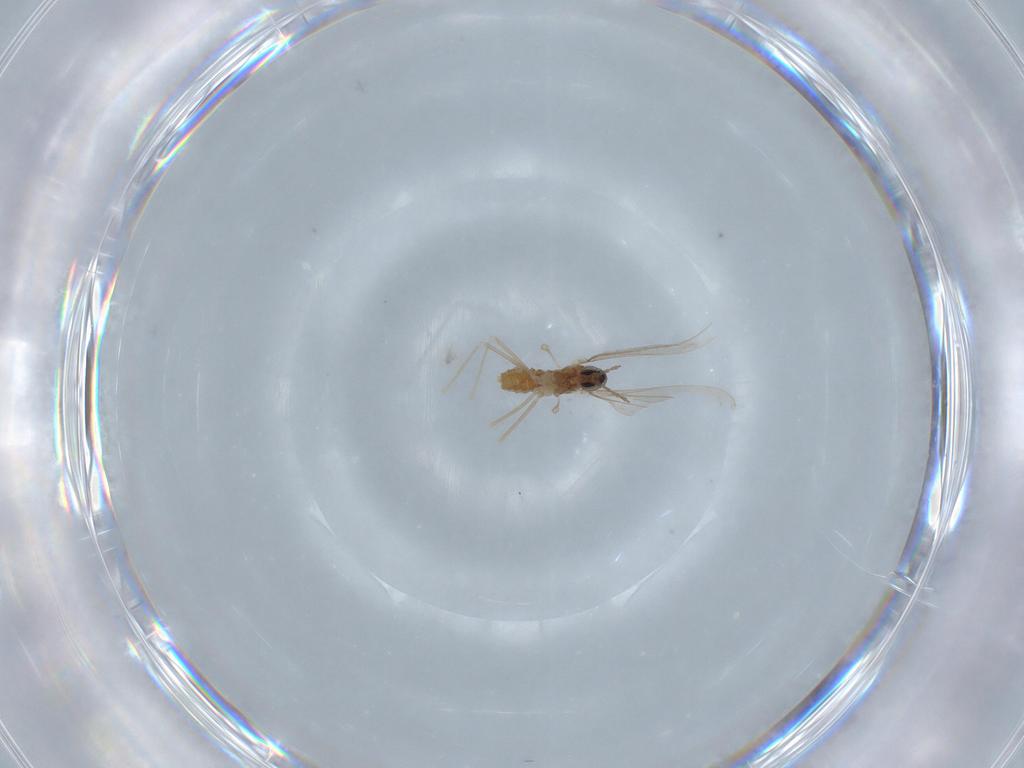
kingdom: Animalia
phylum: Arthropoda
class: Insecta
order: Diptera
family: Cecidomyiidae
